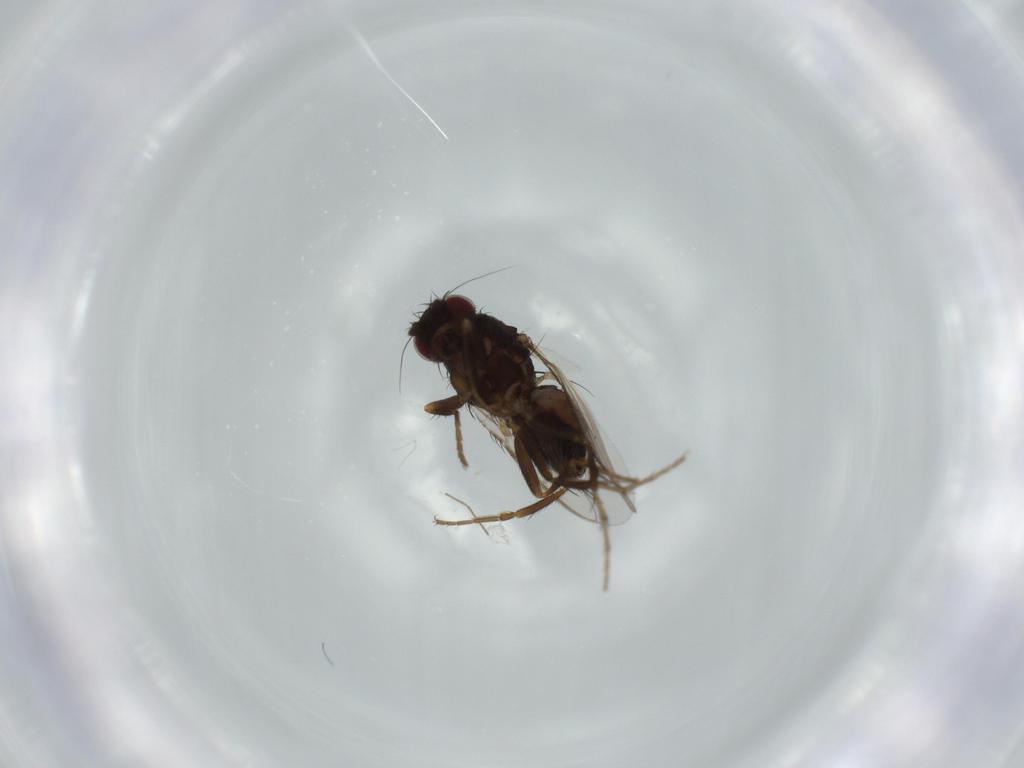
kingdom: Animalia
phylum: Arthropoda
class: Insecta
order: Diptera
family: Sphaeroceridae
